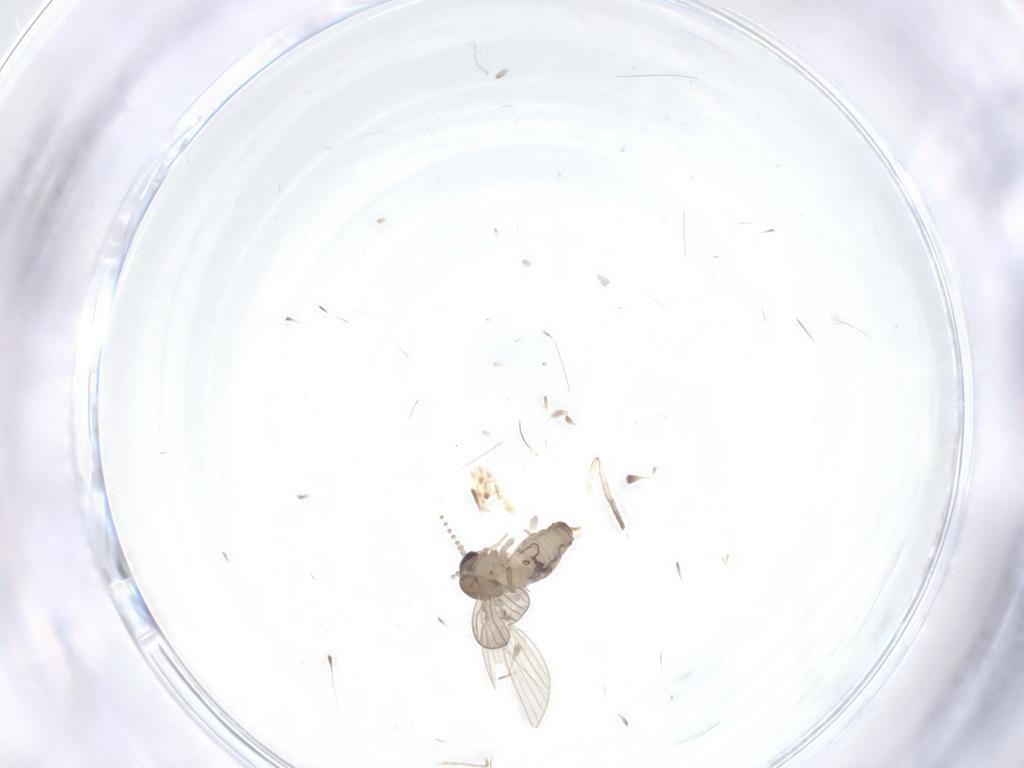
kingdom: Animalia
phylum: Arthropoda
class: Insecta
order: Diptera
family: Psychodidae
